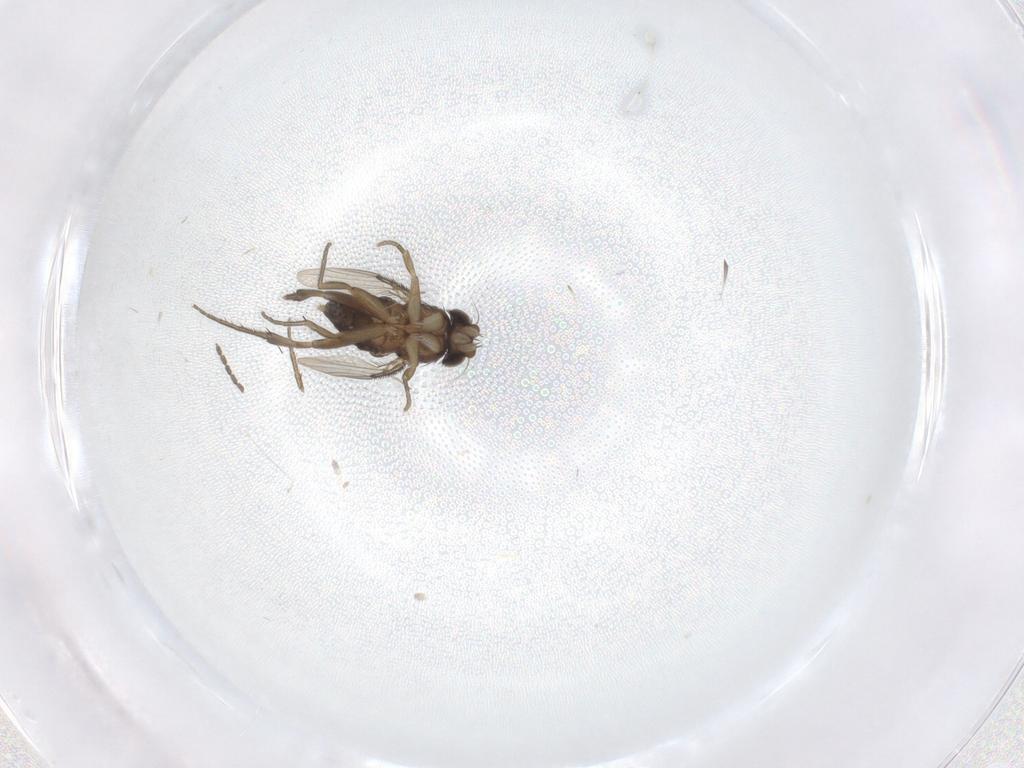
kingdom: Animalia
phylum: Arthropoda
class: Insecta
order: Diptera
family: Phoridae
